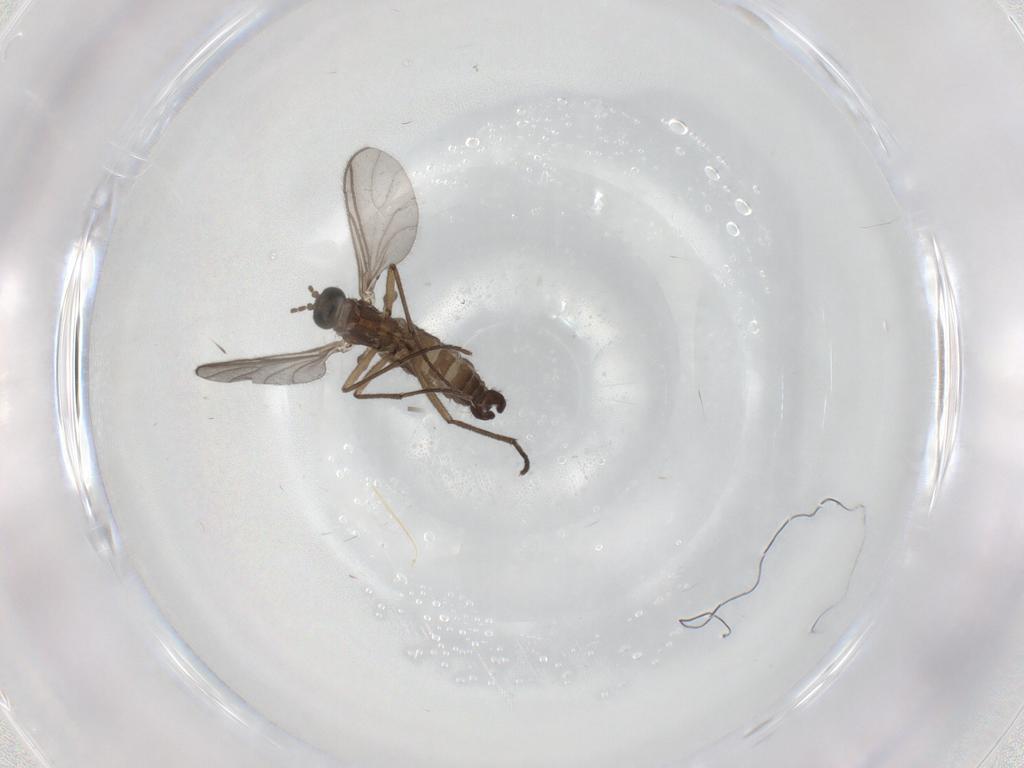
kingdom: Animalia
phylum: Arthropoda
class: Insecta
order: Diptera
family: Sciaridae
